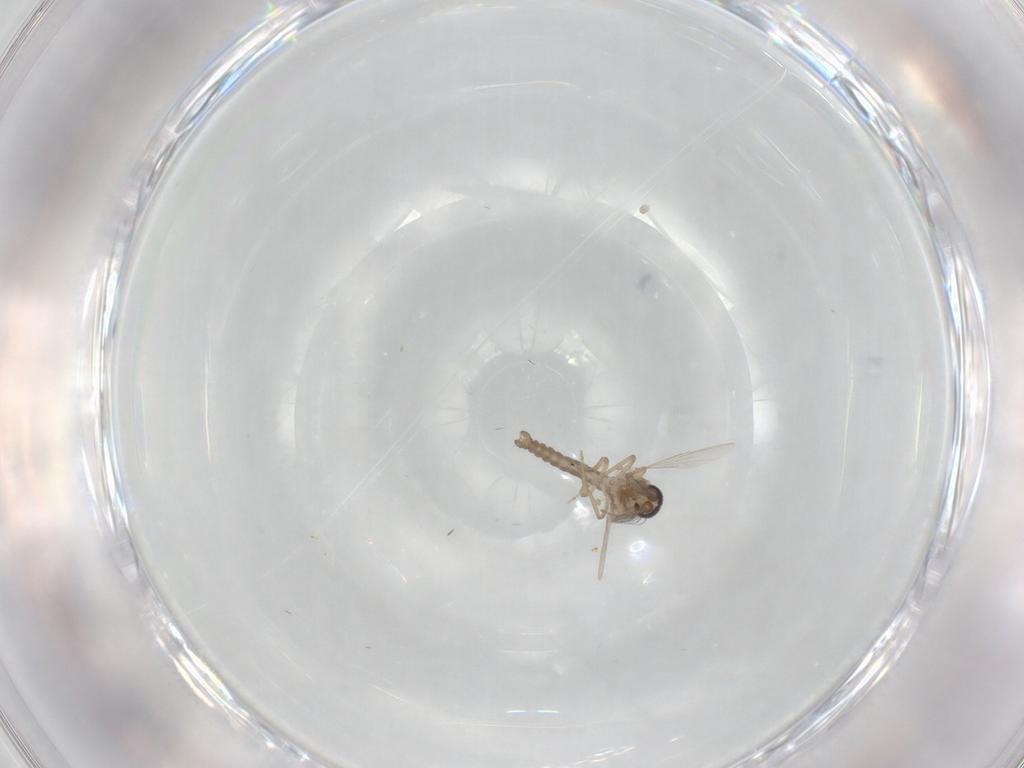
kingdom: Animalia
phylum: Arthropoda
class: Insecta
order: Diptera
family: Ceratopogonidae
